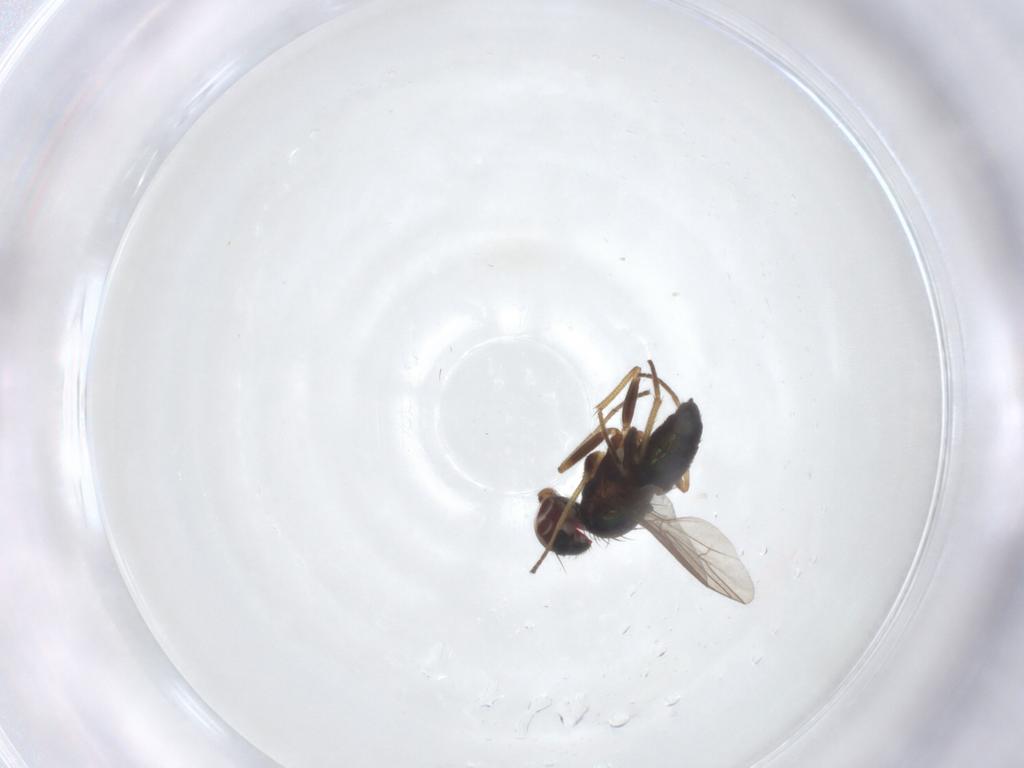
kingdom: Animalia
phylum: Arthropoda
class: Insecta
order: Diptera
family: Dolichopodidae
